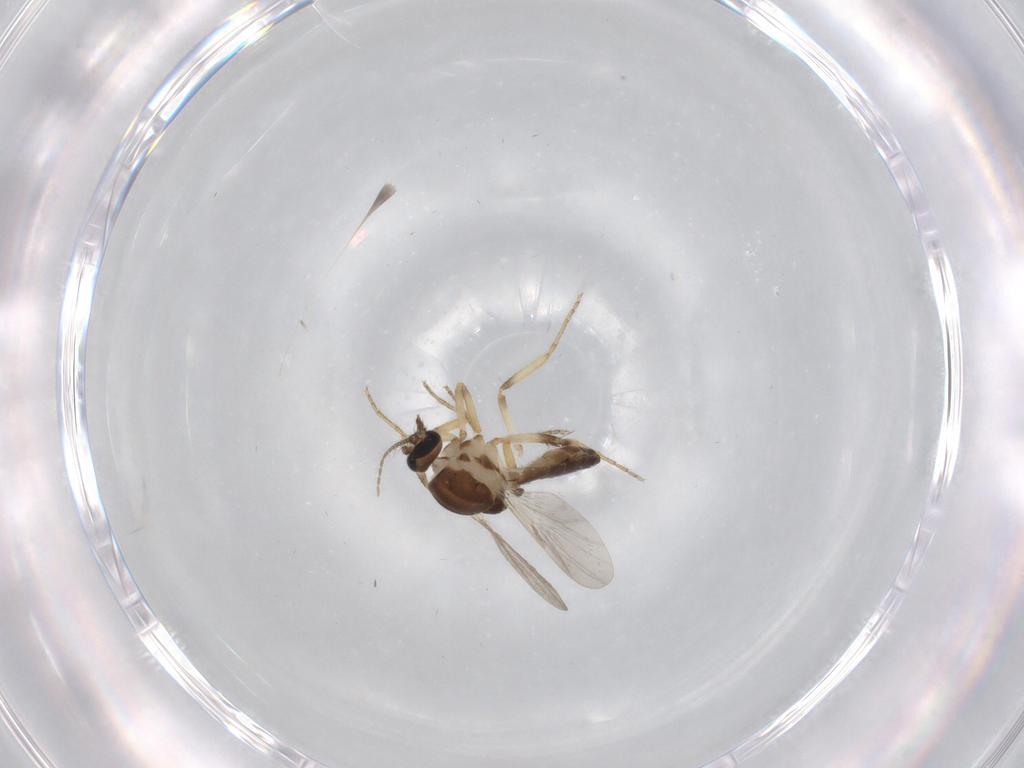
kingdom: Animalia
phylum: Arthropoda
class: Insecta
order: Diptera
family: Ceratopogonidae
